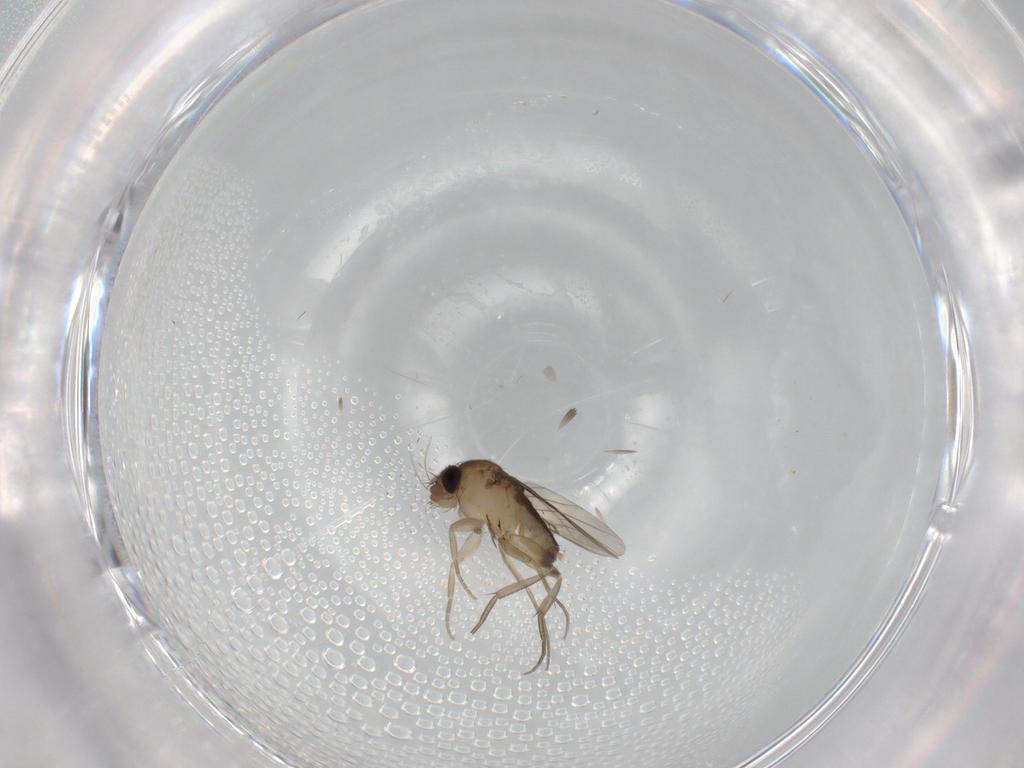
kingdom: Animalia
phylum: Arthropoda
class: Insecta
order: Diptera
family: Phoridae
